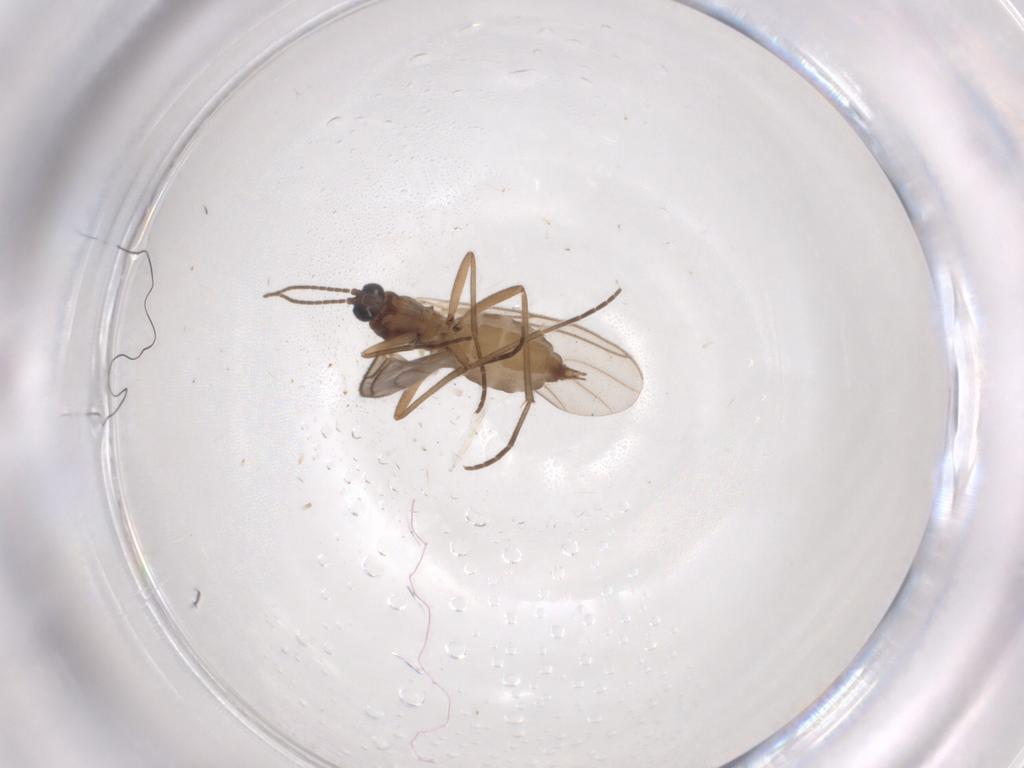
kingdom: Animalia
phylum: Arthropoda
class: Insecta
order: Diptera
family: Sciaridae
